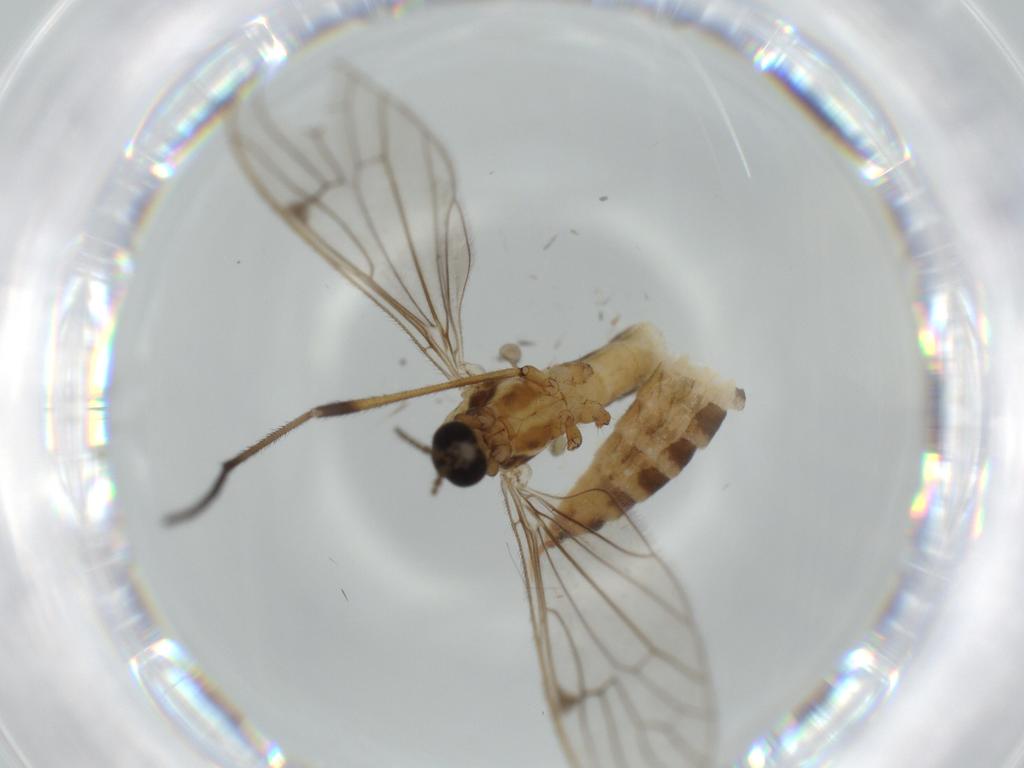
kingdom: Animalia
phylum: Arthropoda
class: Insecta
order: Diptera
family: Phoridae
